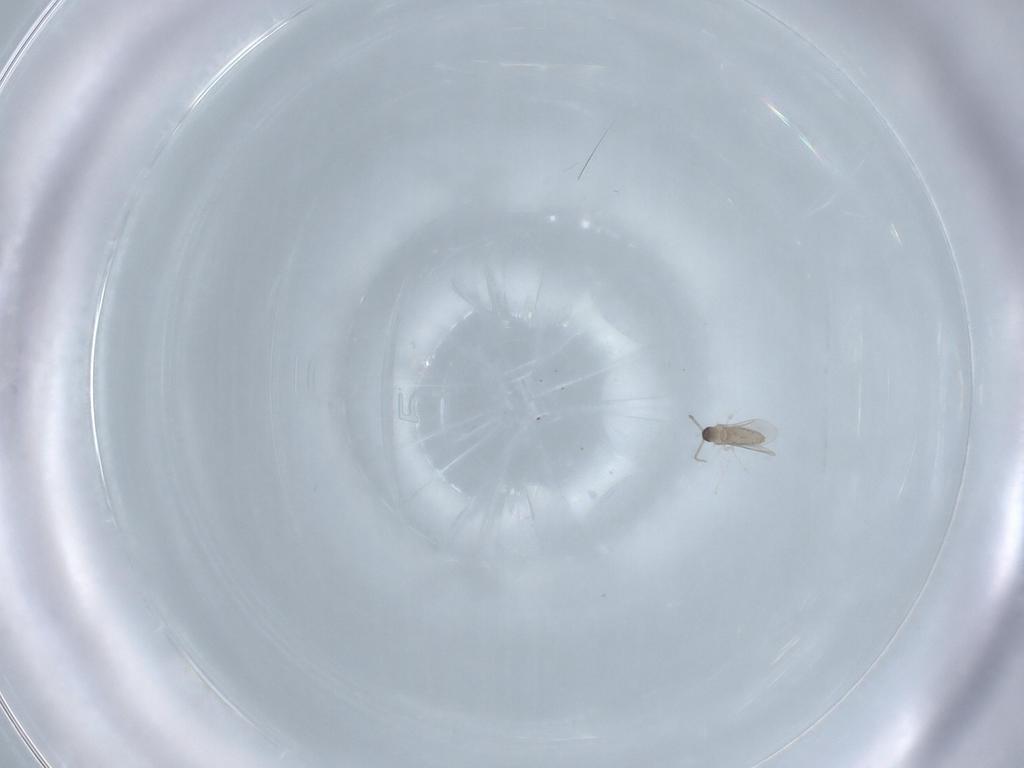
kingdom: Animalia
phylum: Arthropoda
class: Insecta
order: Diptera
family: Cecidomyiidae
